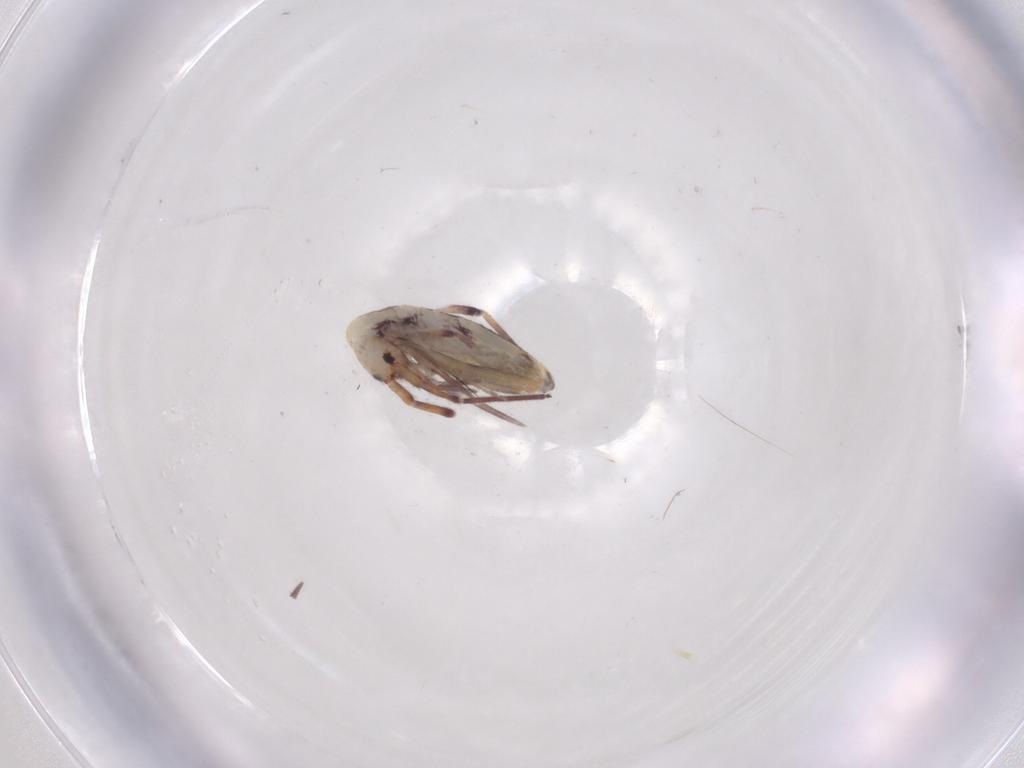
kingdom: Animalia
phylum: Arthropoda
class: Collembola
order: Entomobryomorpha
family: Entomobryidae
